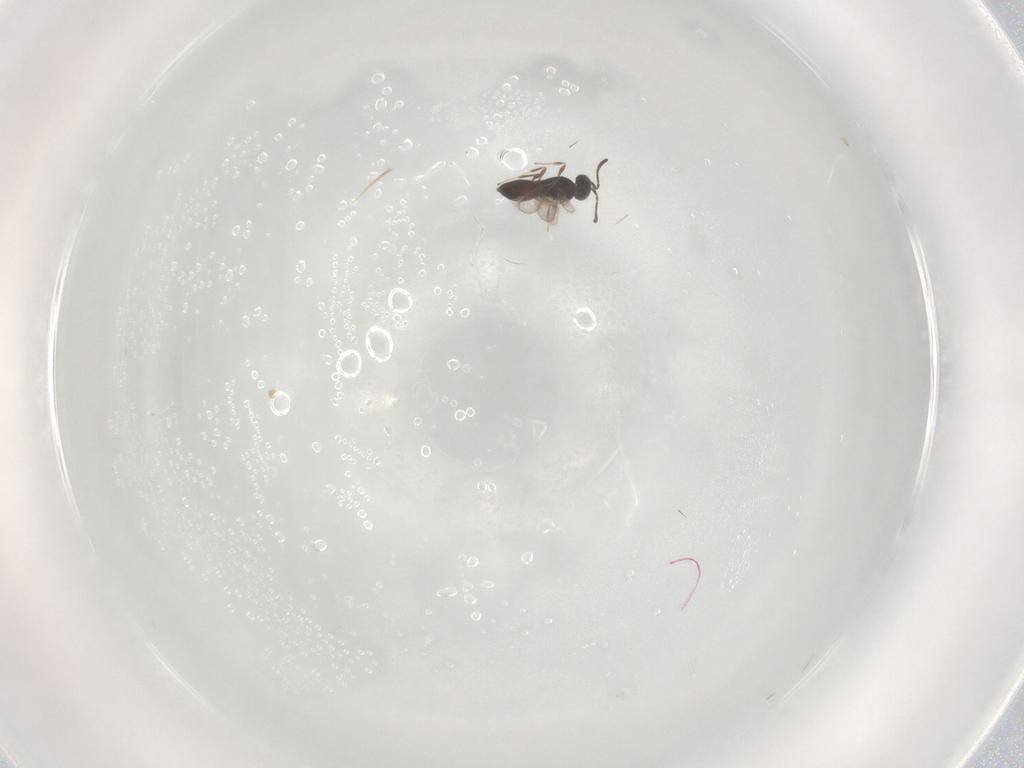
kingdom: Animalia
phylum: Arthropoda
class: Insecta
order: Hymenoptera
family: Scelionidae
